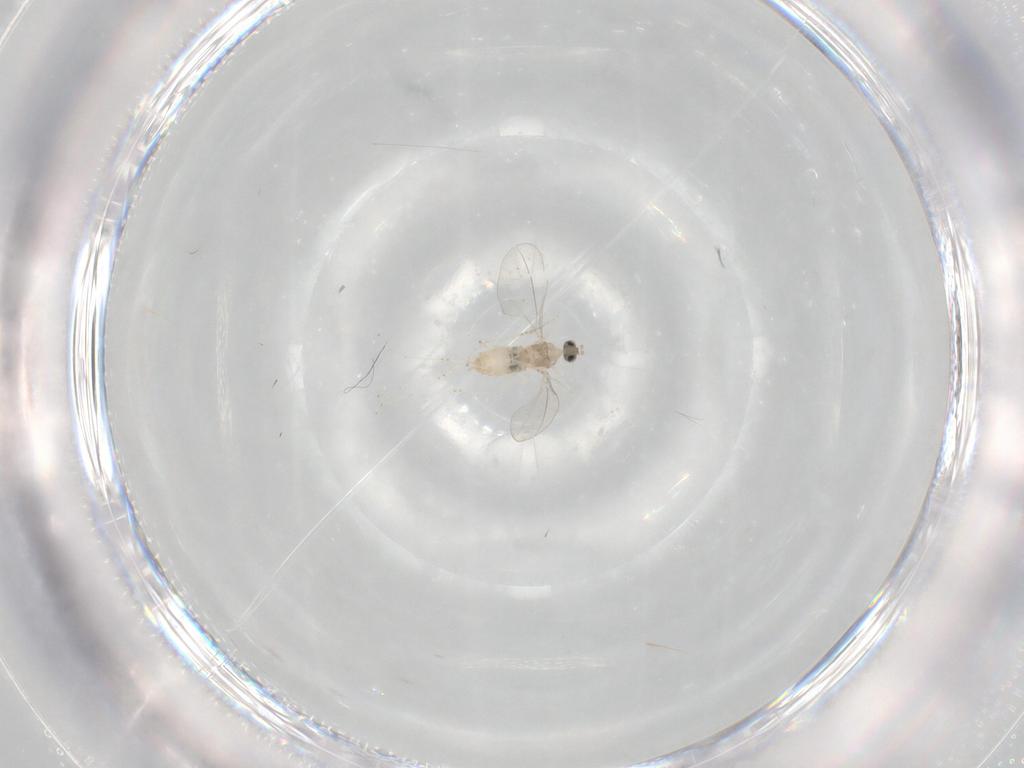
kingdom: Animalia
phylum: Arthropoda
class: Insecta
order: Diptera
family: Cecidomyiidae
